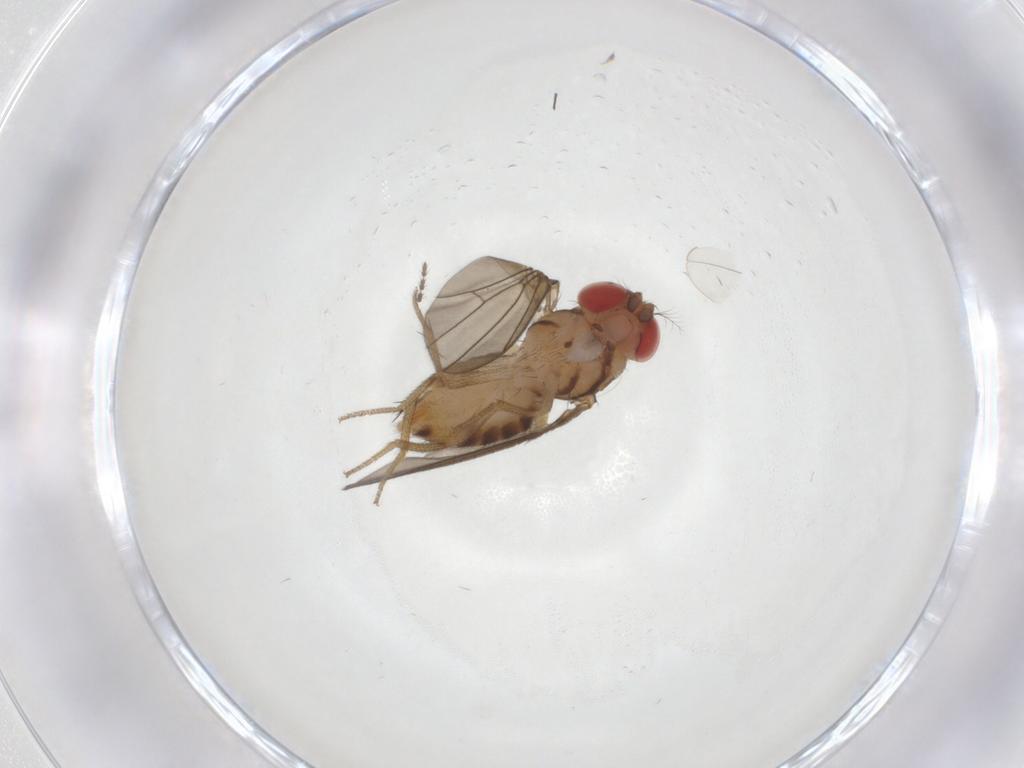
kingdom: Animalia
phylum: Arthropoda
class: Insecta
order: Diptera
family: Drosophilidae
